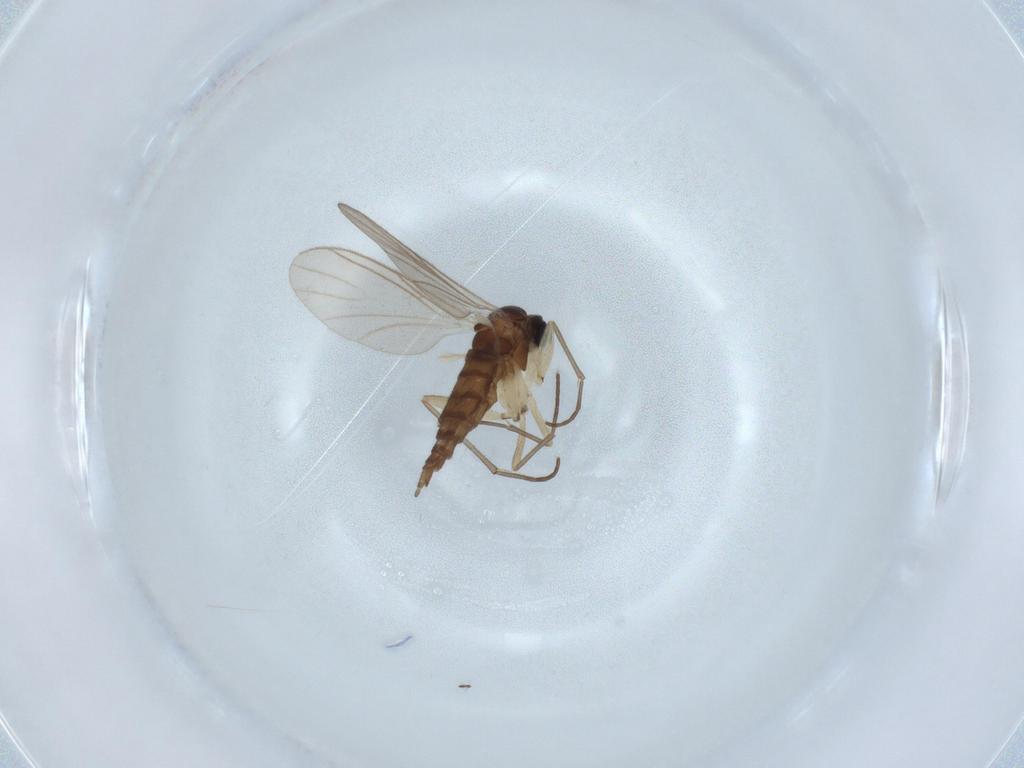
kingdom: Animalia
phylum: Arthropoda
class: Insecta
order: Diptera
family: Sciaridae
